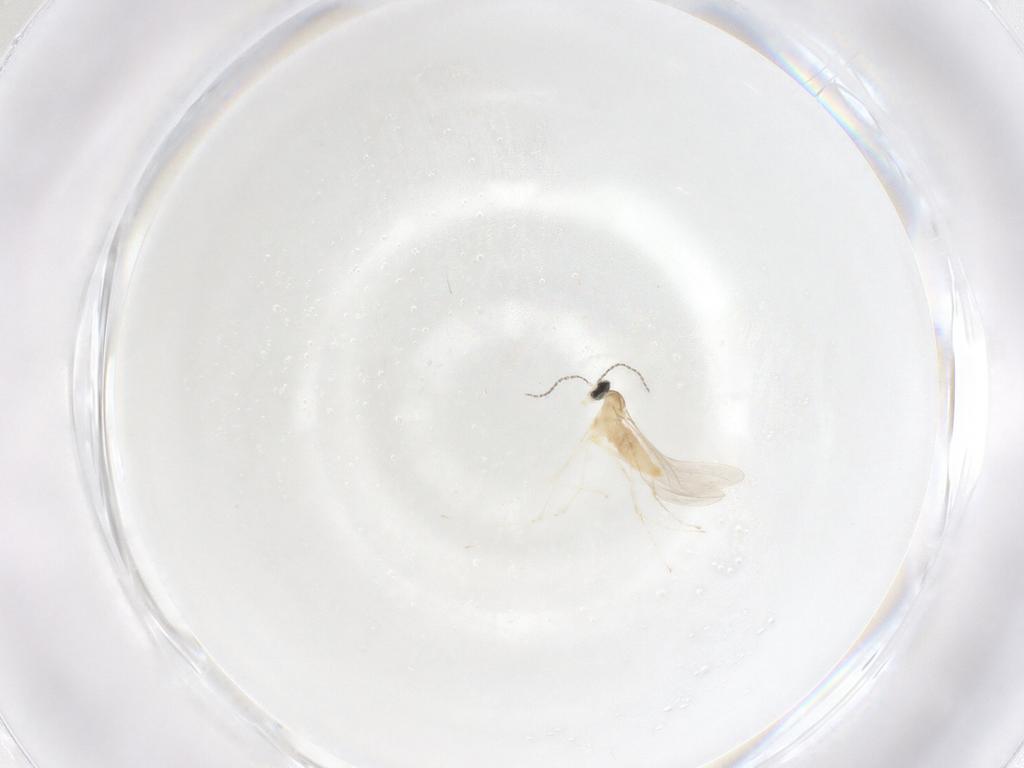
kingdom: Animalia
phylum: Arthropoda
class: Insecta
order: Diptera
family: Cecidomyiidae
